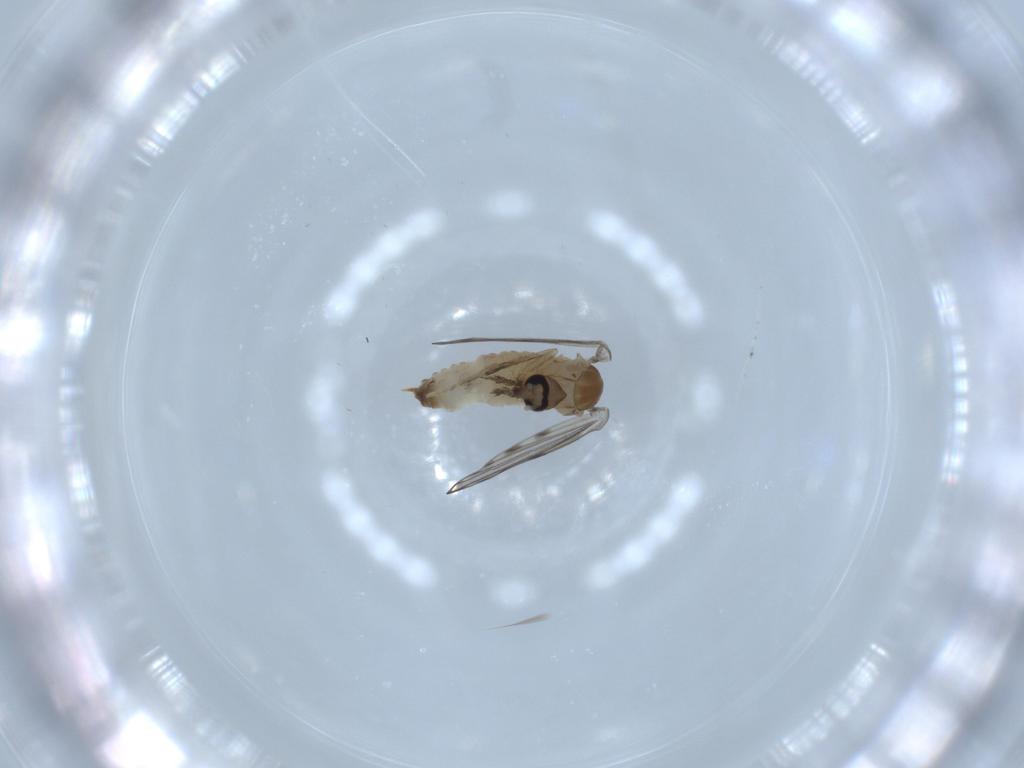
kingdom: Animalia
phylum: Arthropoda
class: Insecta
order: Diptera
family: Psychodidae
